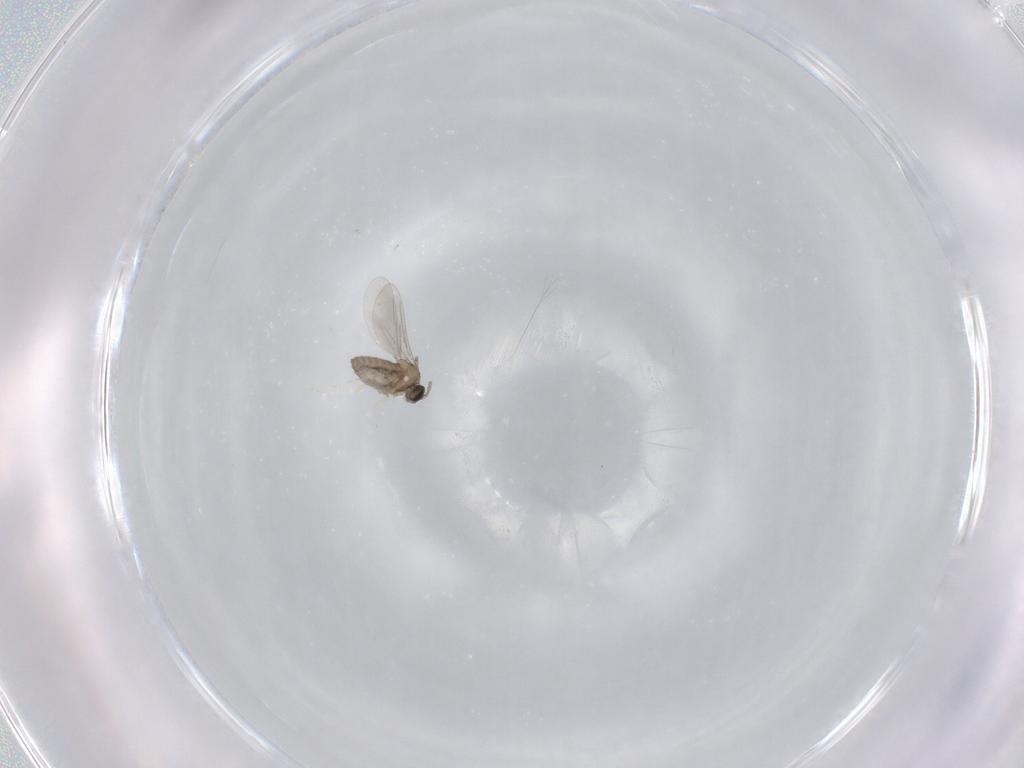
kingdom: Animalia
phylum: Arthropoda
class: Insecta
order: Diptera
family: Cecidomyiidae
